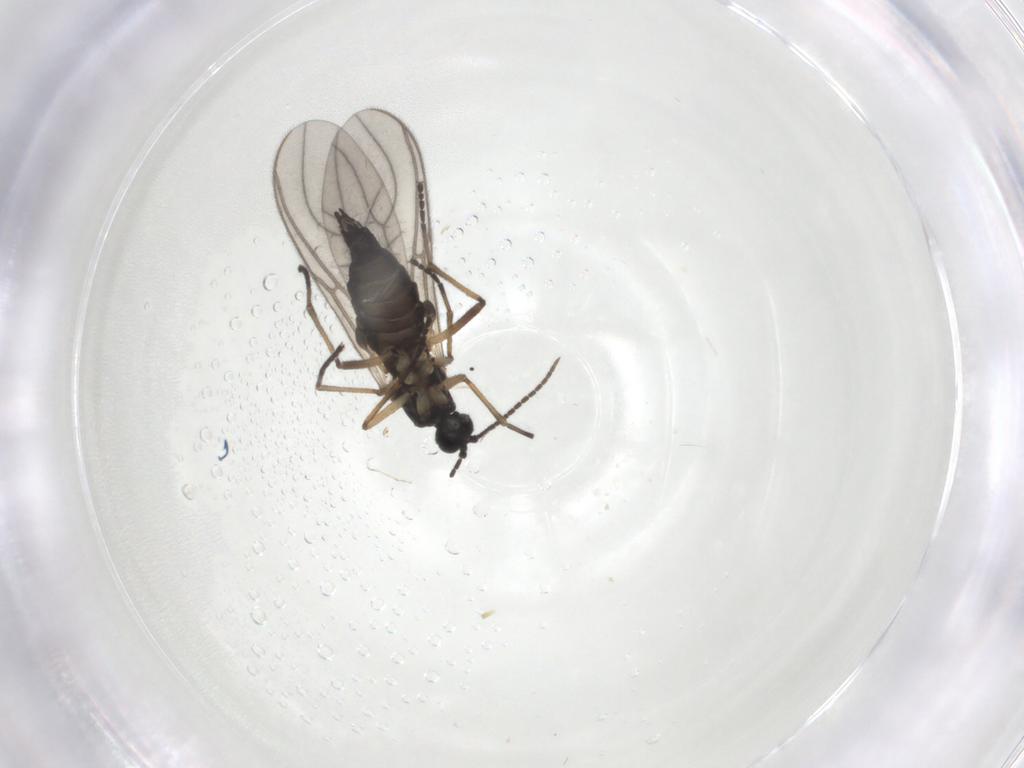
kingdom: Animalia
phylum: Arthropoda
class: Insecta
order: Diptera
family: Sciaridae
